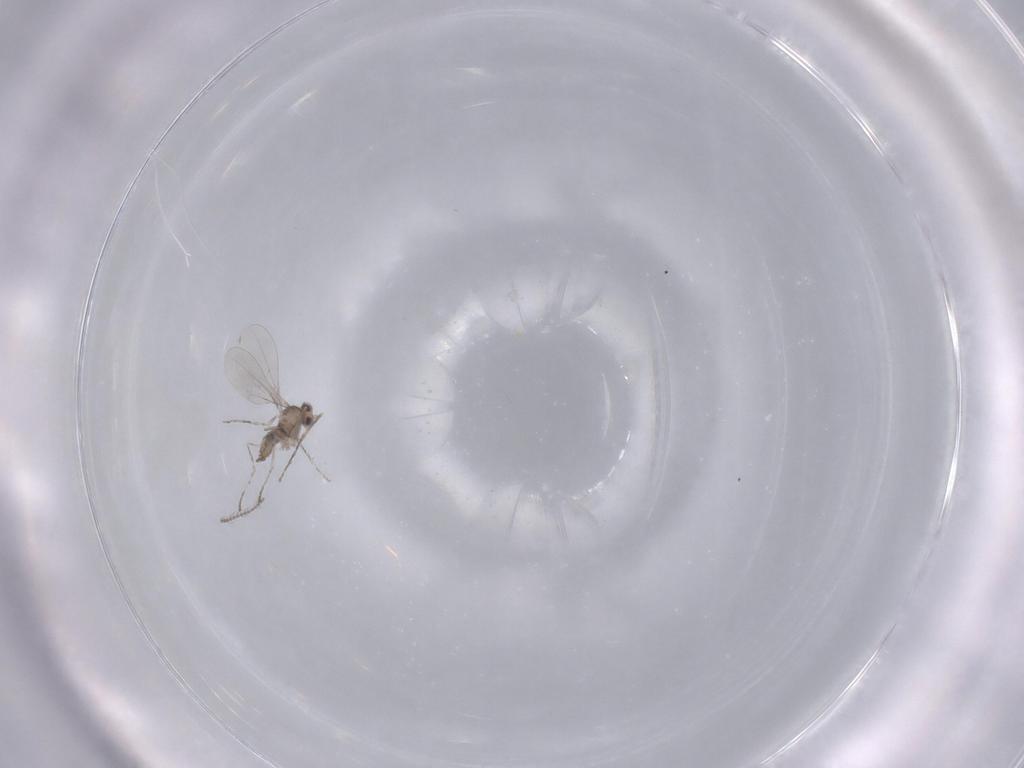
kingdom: Animalia
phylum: Arthropoda
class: Insecta
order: Diptera
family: Cecidomyiidae
